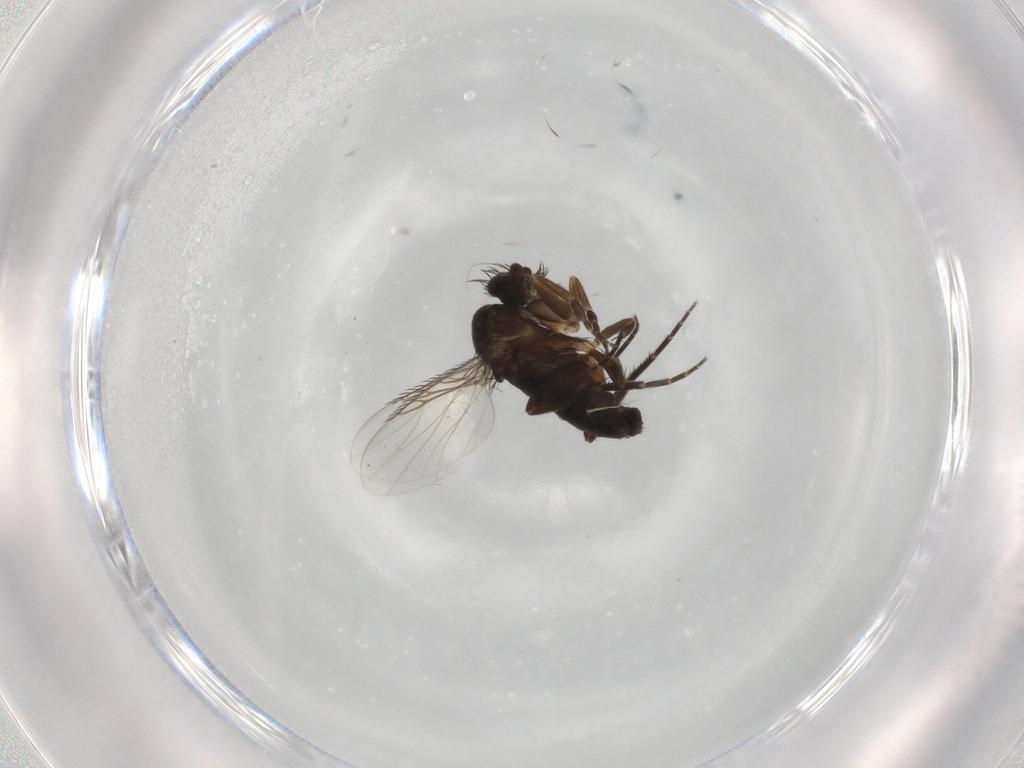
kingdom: Animalia
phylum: Arthropoda
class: Insecta
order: Diptera
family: Phoridae
